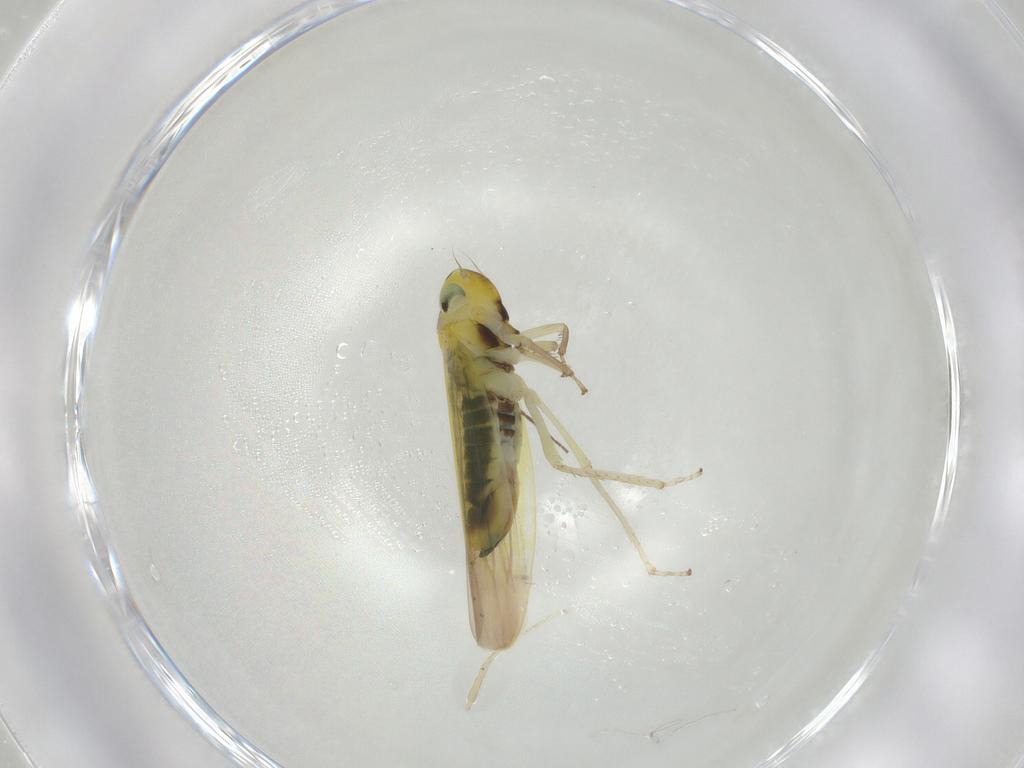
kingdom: Animalia
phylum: Arthropoda
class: Insecta
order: Hemiptera
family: Cicadellidae
